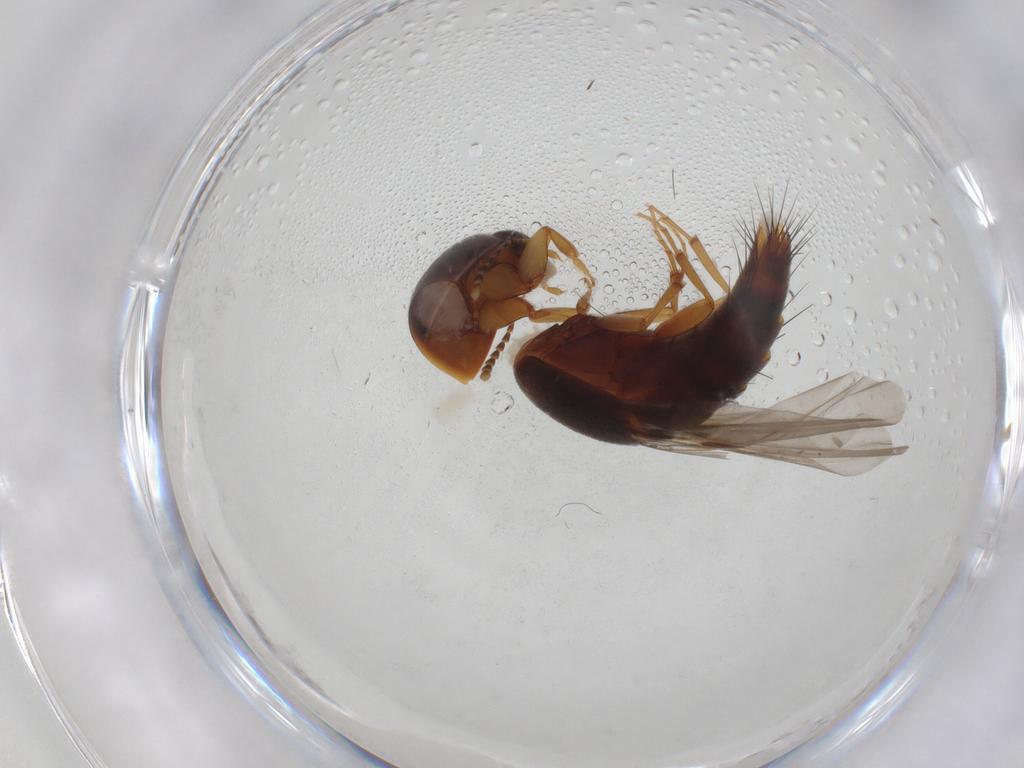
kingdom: Animalia
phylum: Arthropoda
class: Insecta
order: Coleoptera
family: Staphylinidae
